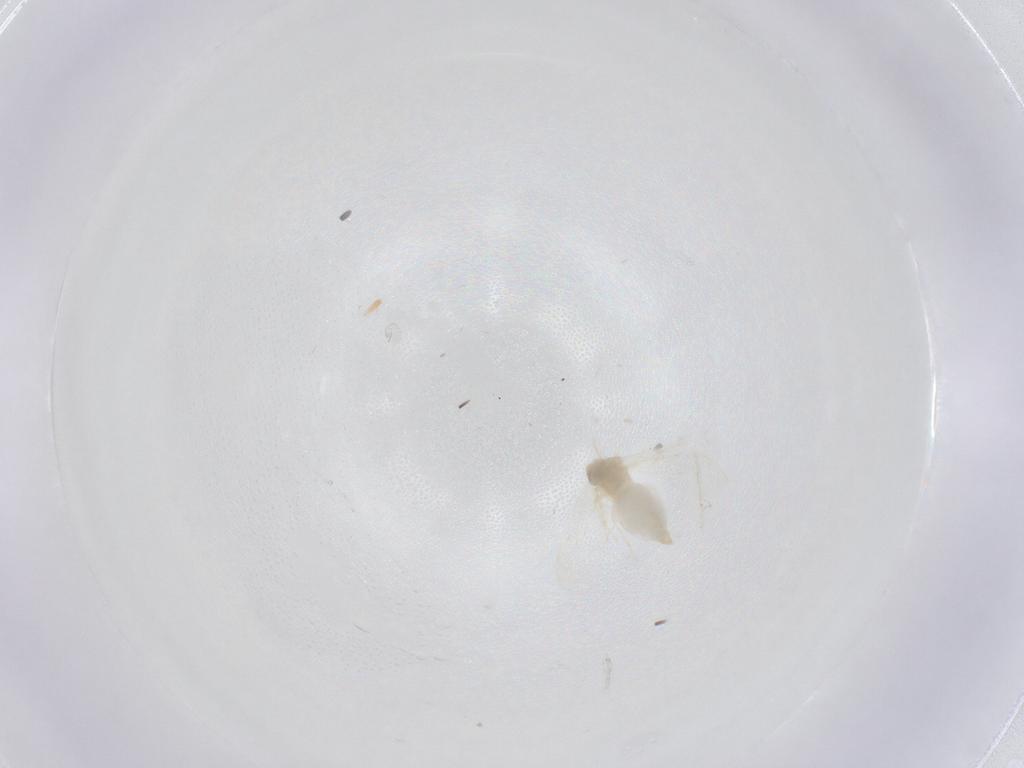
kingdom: Animalia
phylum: Arthropoda
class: Insecta
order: Hemiptera
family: Aleyrodidae
